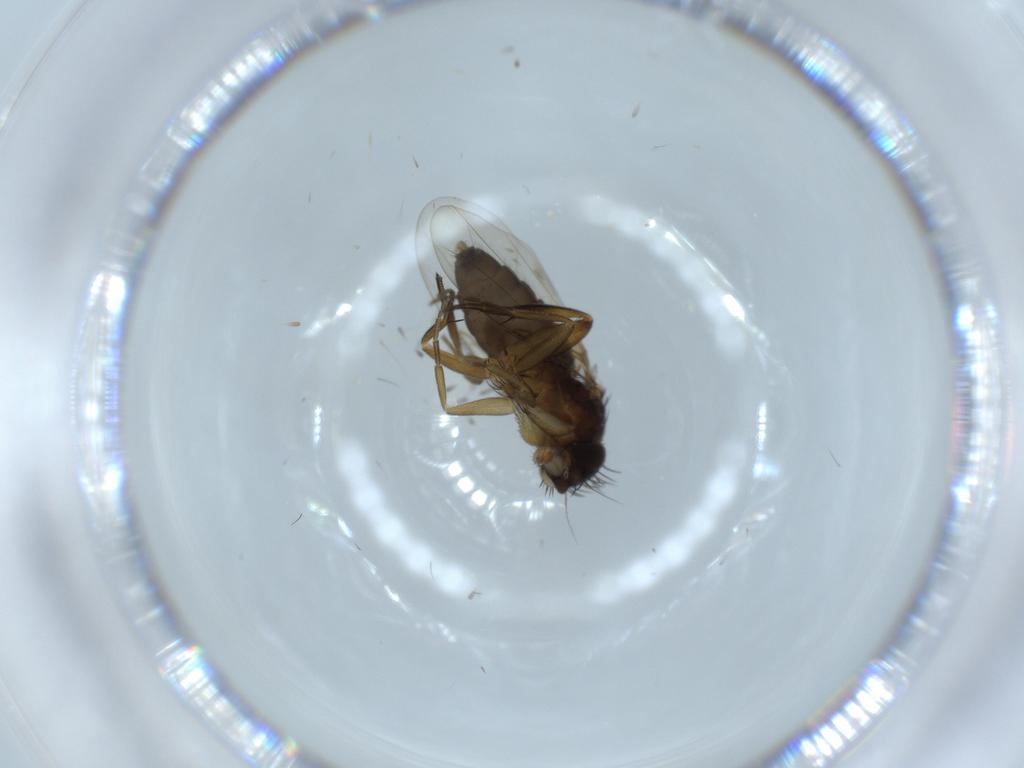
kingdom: Animalia
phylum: Arthropoda
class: Insecta
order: Diptera
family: Phoridae
